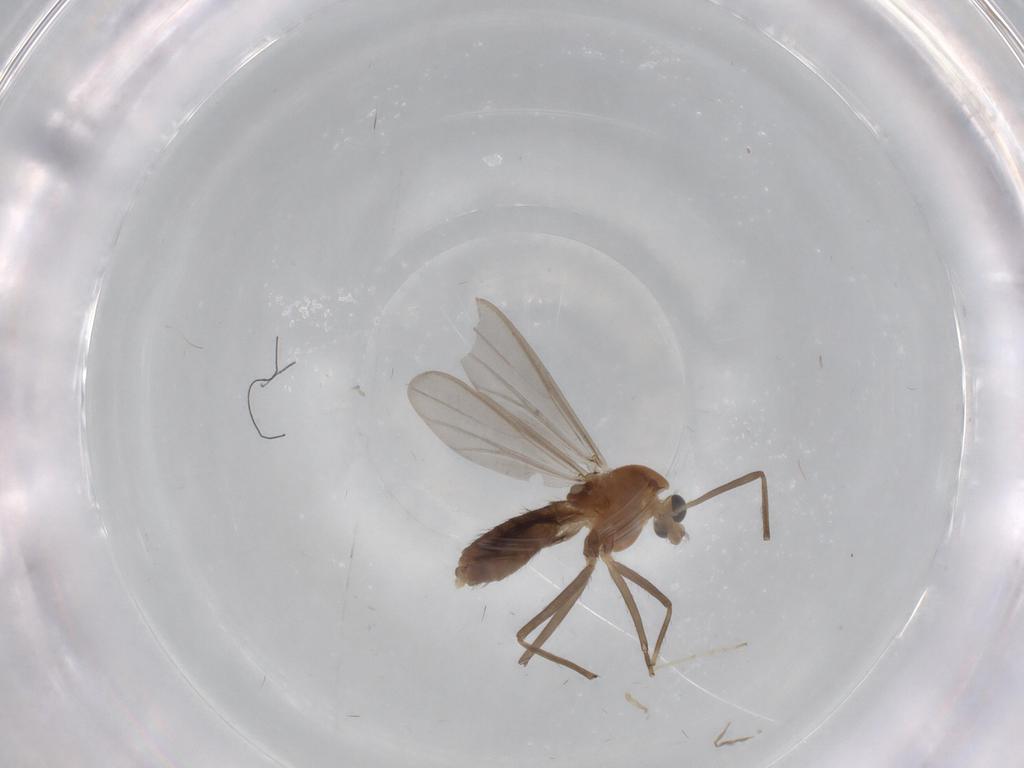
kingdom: Animalia
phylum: Arthropoda
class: Insecta
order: Diptera
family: Chironomidae
